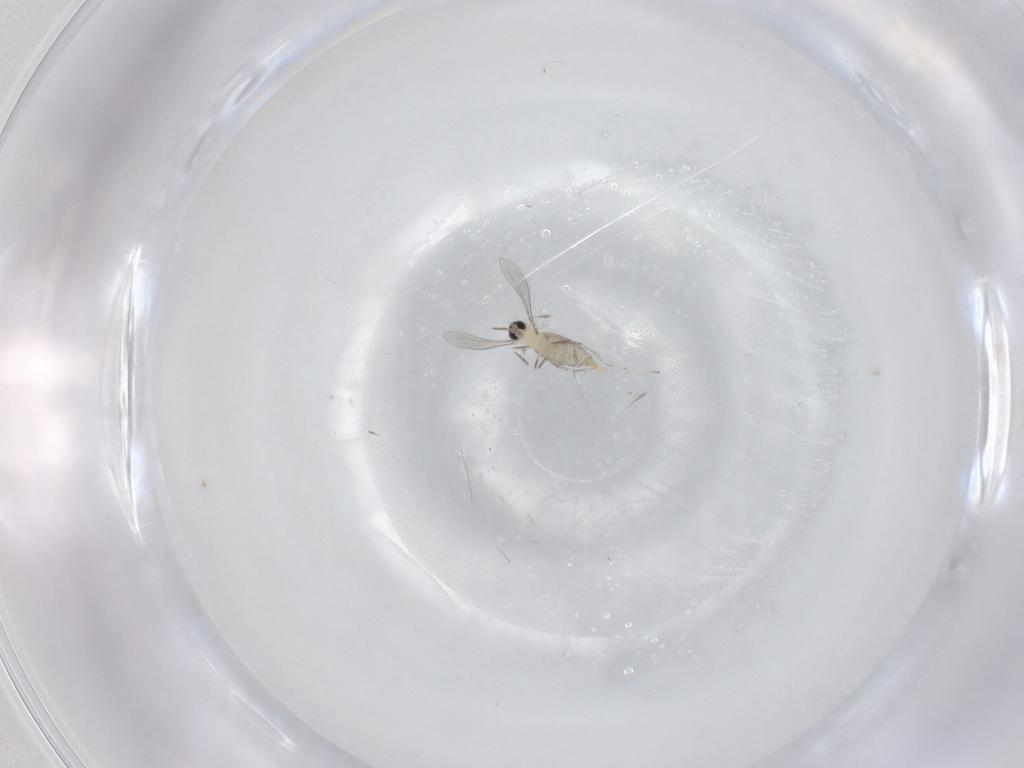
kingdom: Animalia
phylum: Arthropoda
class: Insecta
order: Diptera
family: Cecidomyiidae
